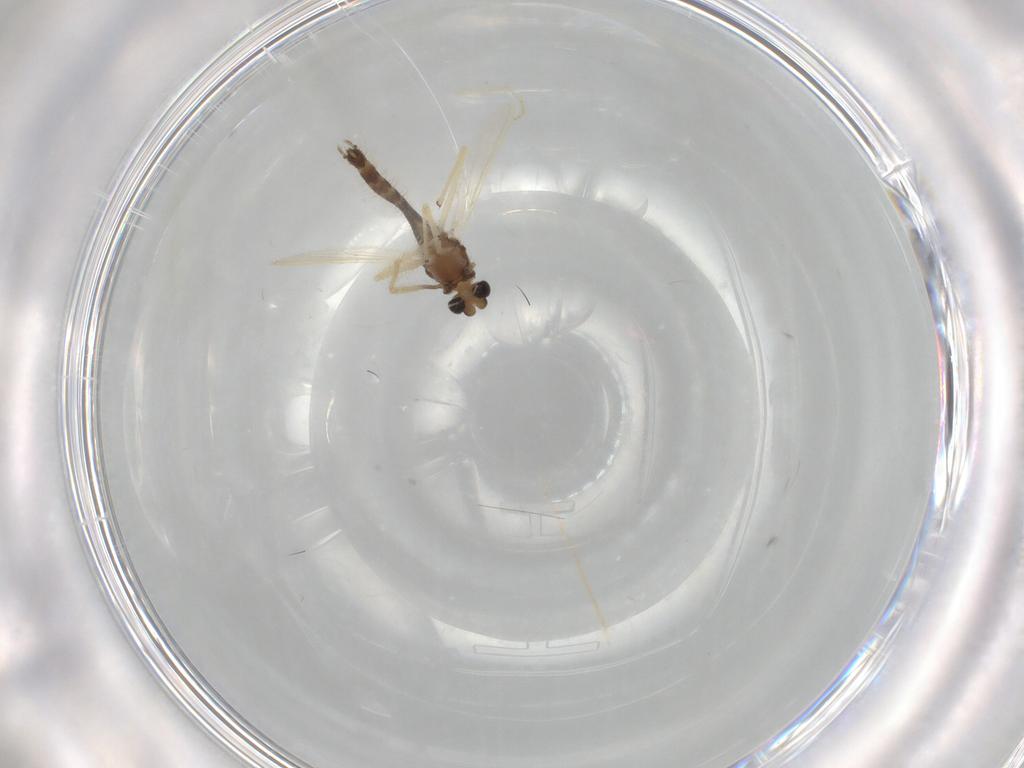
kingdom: Animalia
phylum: Arthropoda
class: Insecta
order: Diptera
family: Chironomidae
